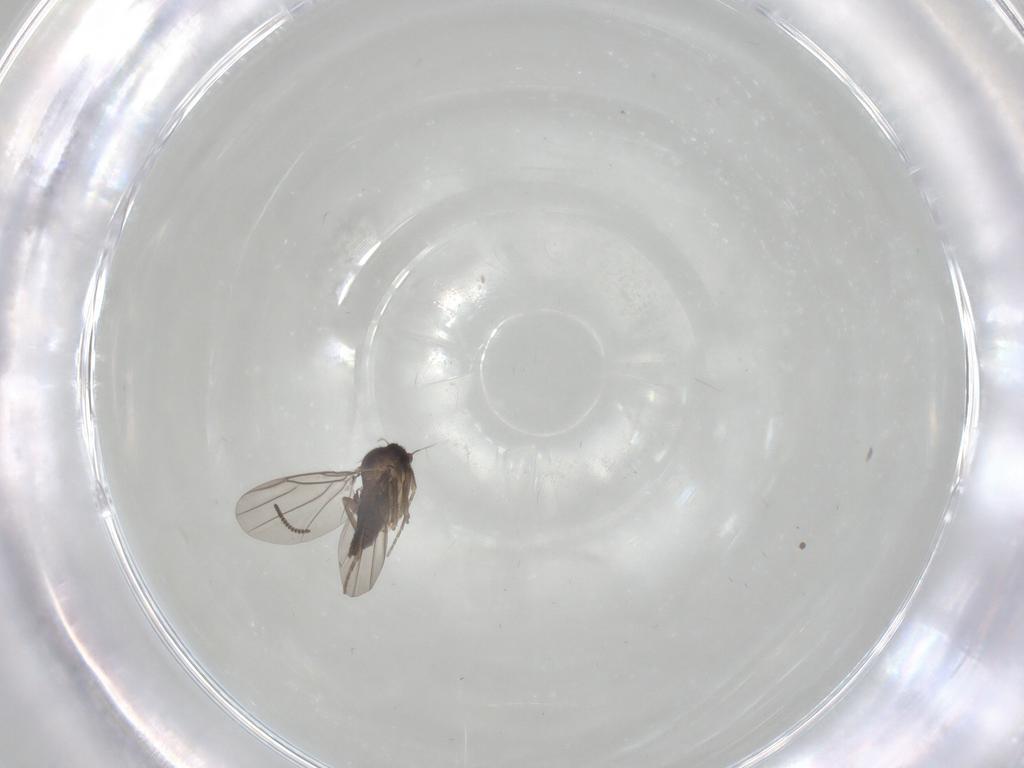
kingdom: Animalia
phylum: Arthropoda
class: Insecta
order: Diptera
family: Sciaridae
